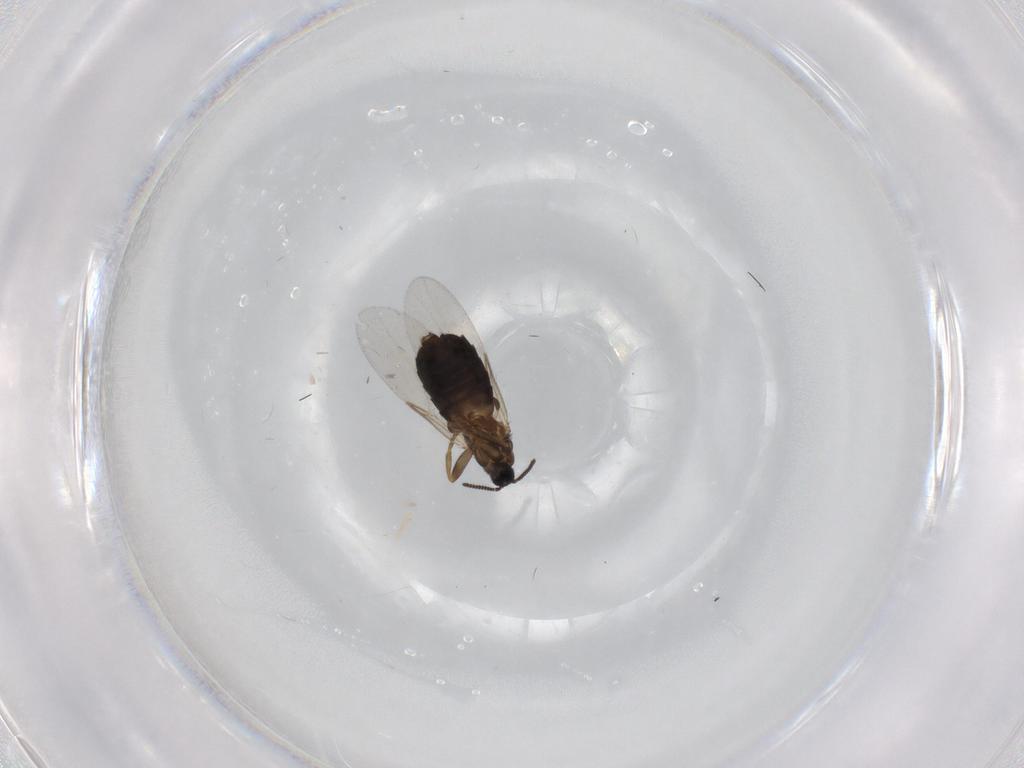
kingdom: Animalia
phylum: Arthropoda
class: Insecta
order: Diptera
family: Scatopsidae
